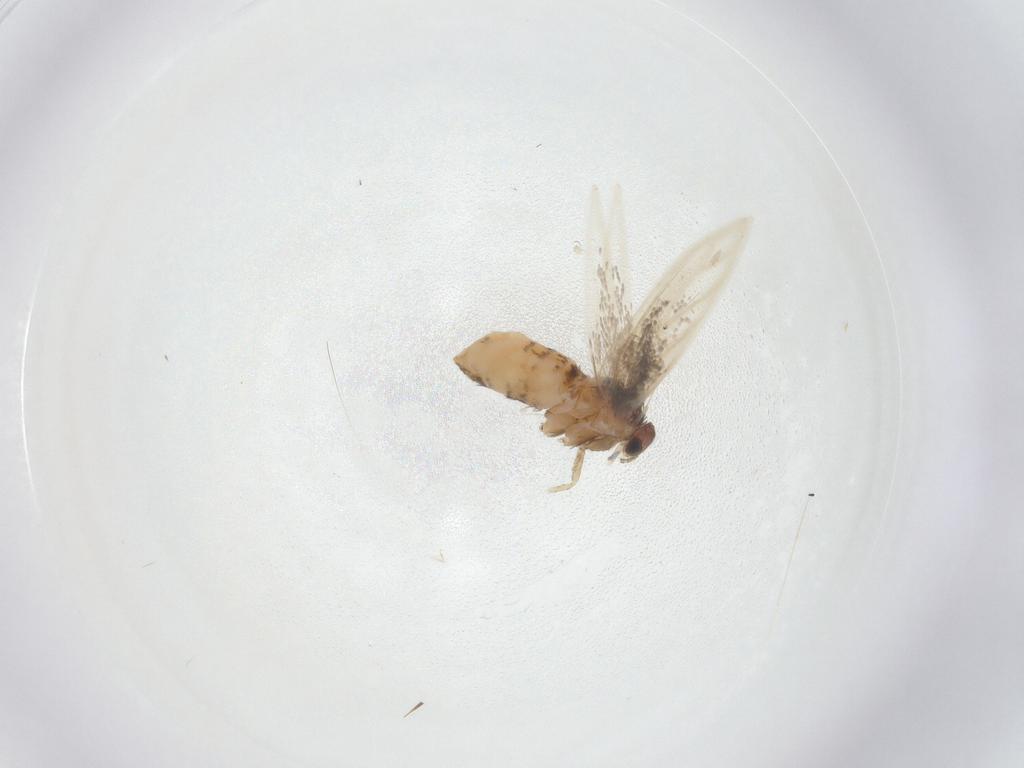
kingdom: Animalia
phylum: Arthropoda
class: Insecta
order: Lepidoptera
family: Nepticulidae
